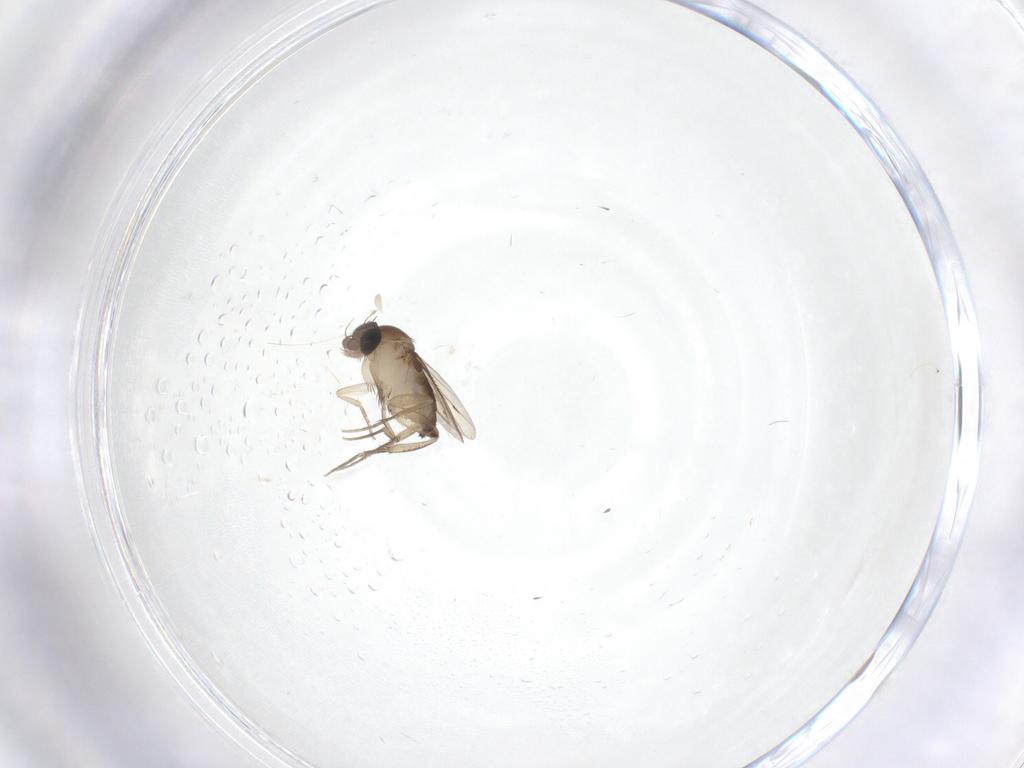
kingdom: Animalia
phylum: Arthropoda
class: Insecta
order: Diptera
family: Phoridae
